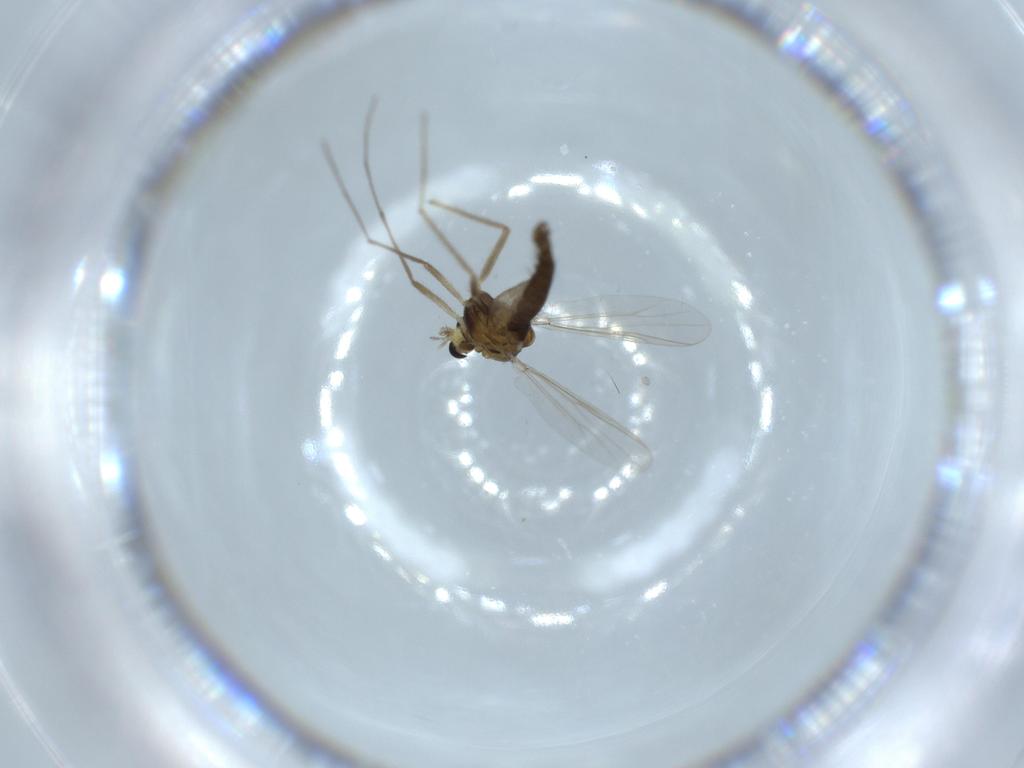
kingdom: Animalia
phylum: Arthropoda
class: Insecta
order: Diptera
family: Chironomidae
